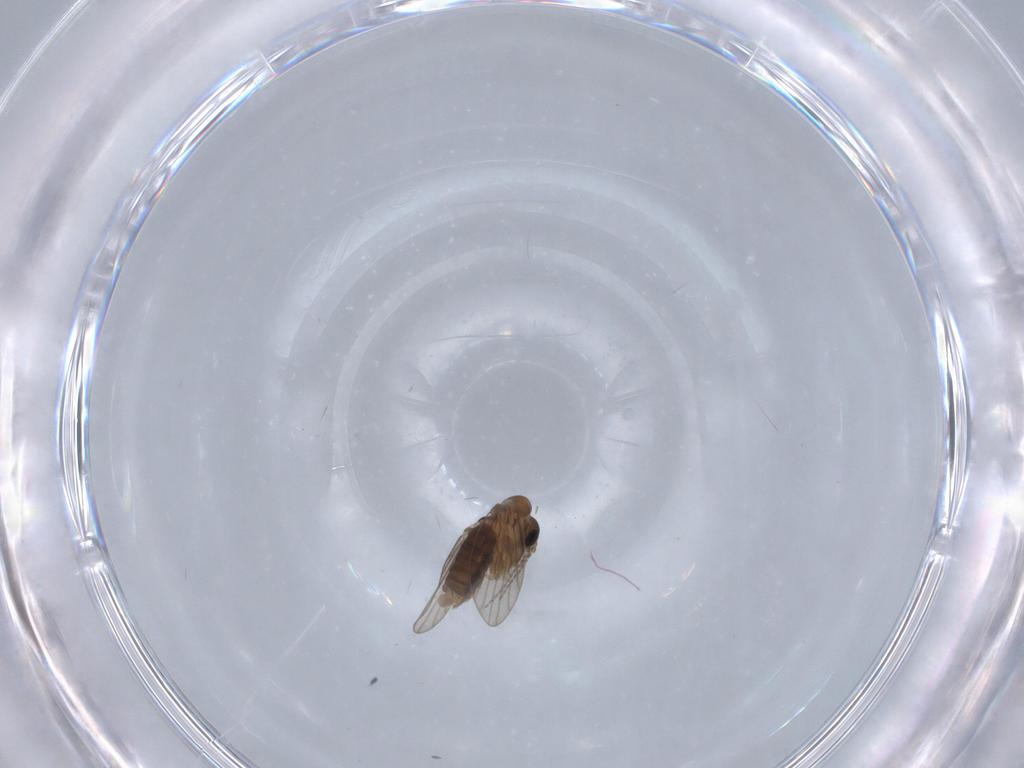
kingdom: Animalia
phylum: Arthropoda
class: Insecta
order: Diptera
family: Psychodidae
